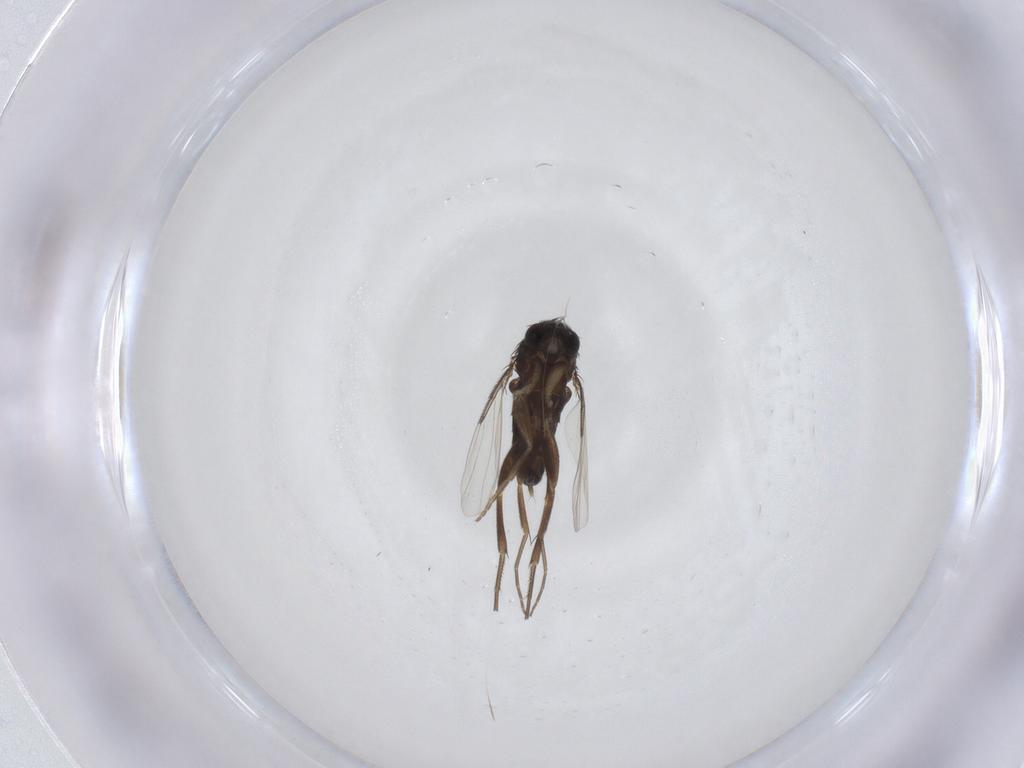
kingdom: Animalia
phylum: Arthropoda
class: Insecta
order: Diptera
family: Phoridae
